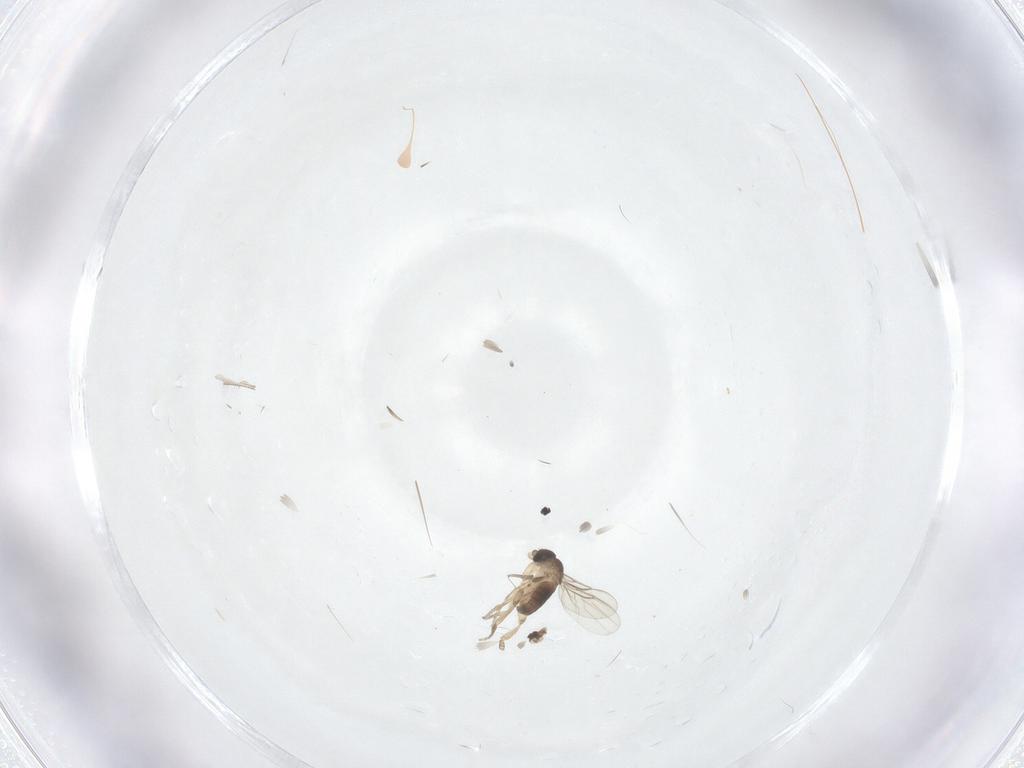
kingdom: Animalia
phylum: Arthropoda
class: Insecta
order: Diptera
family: Phoridae
